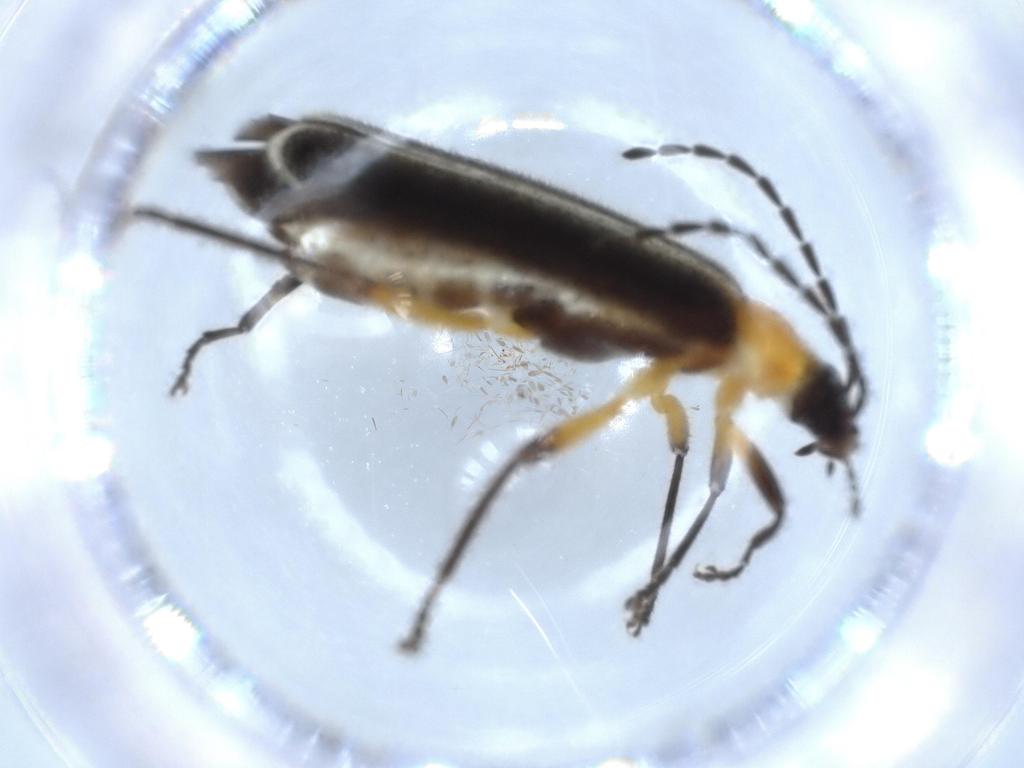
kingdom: Animalia
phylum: Arthropoda
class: Insecta
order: Coleoptera
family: Cantharidae
